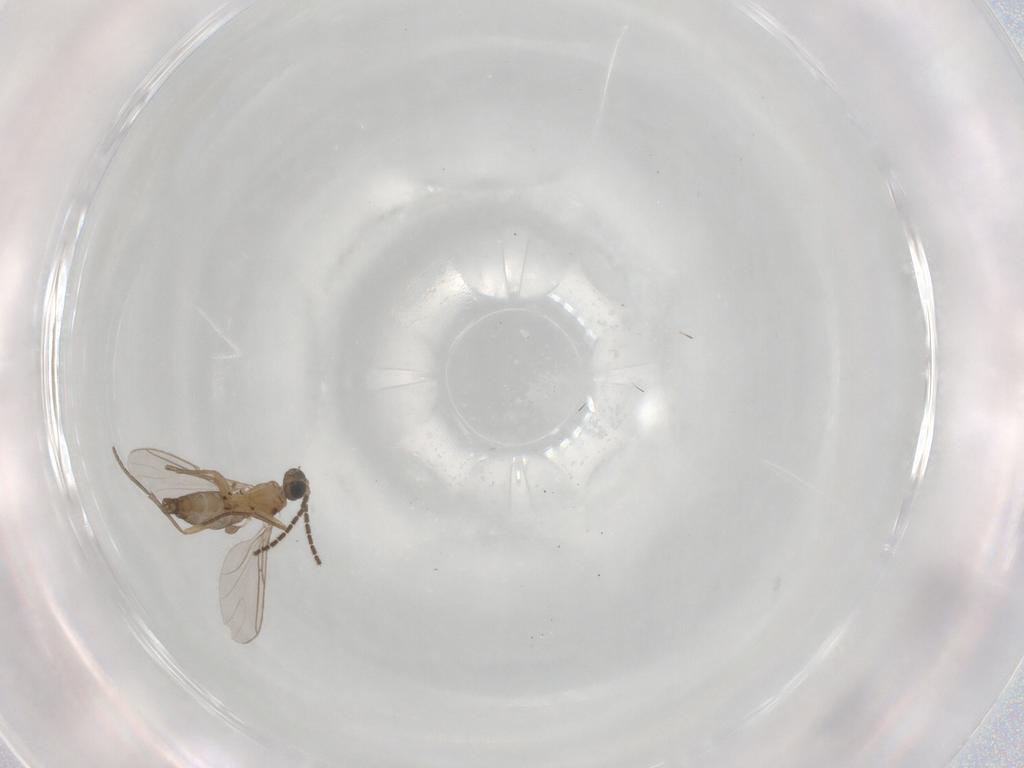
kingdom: Animalia
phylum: Arthropoda
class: Insecta
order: Diptera
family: Sciaridae
